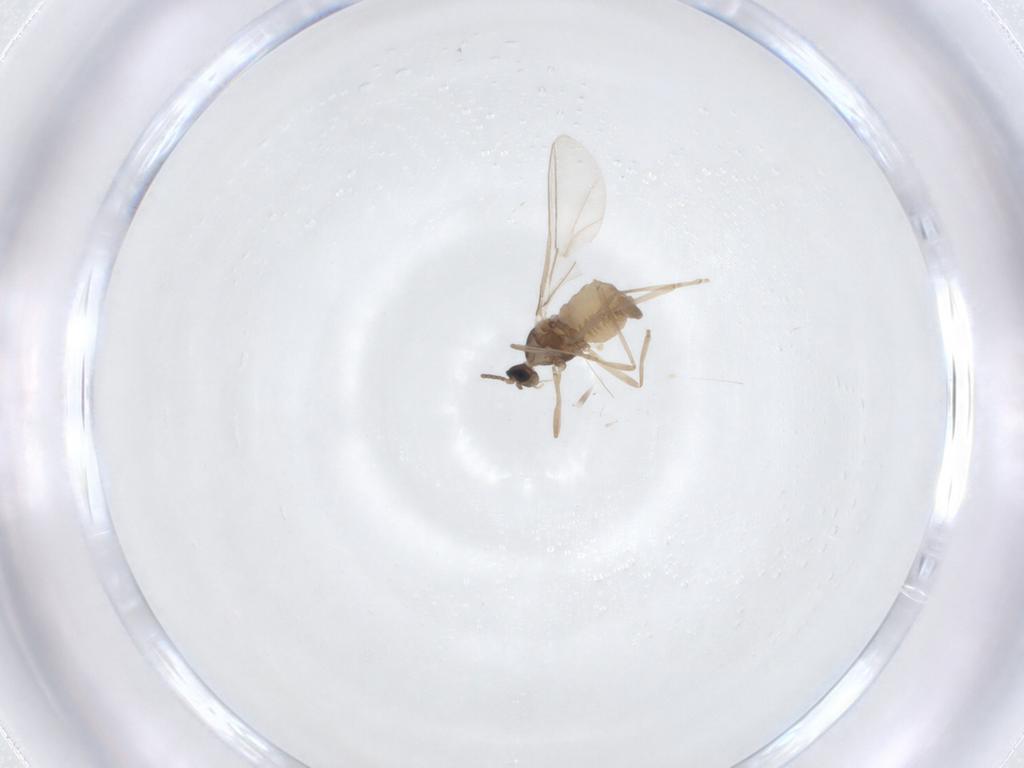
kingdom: Animalia
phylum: Arthropoda
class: Insecta
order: Diptera
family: Cecidomyiidae
